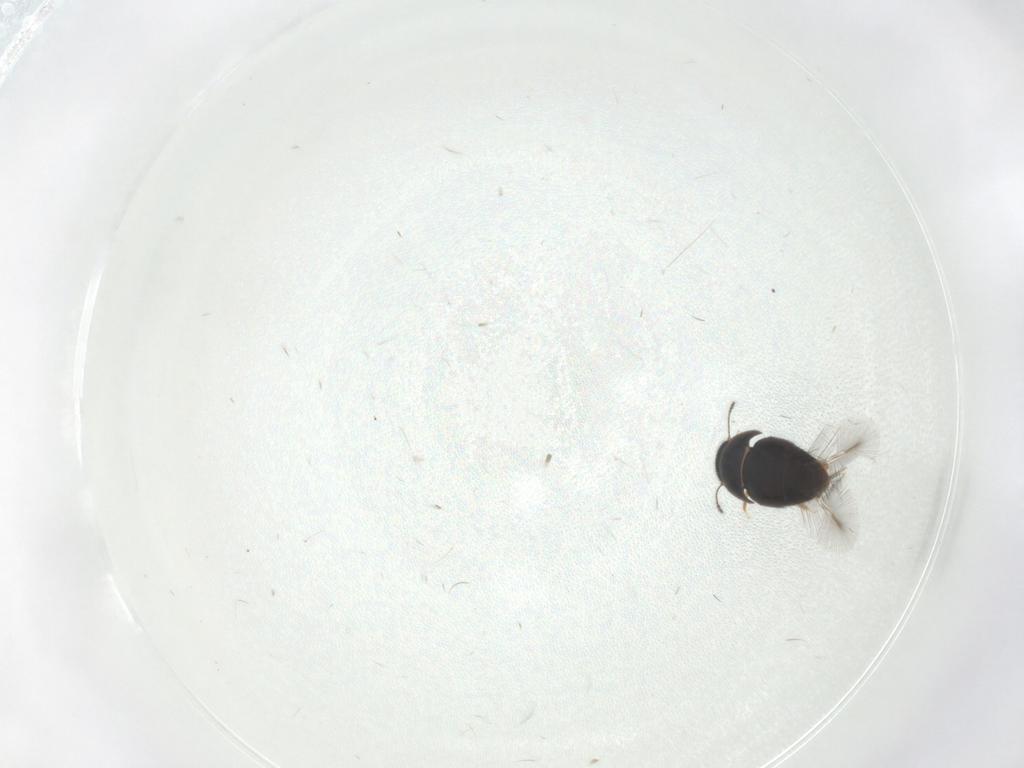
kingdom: Animalia
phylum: Arthropoda
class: Insecta
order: Coleoptera
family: Ptiliidae
